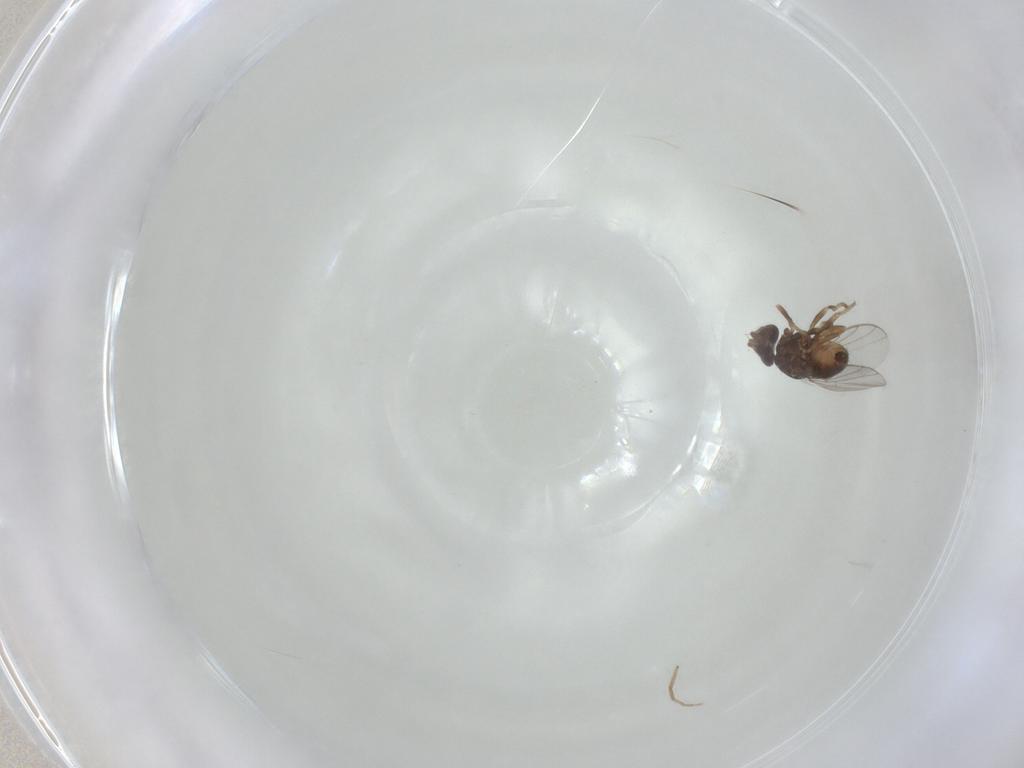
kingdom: Animalia
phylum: Arthropoda
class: Insecta
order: Diptera
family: Chloropidae
